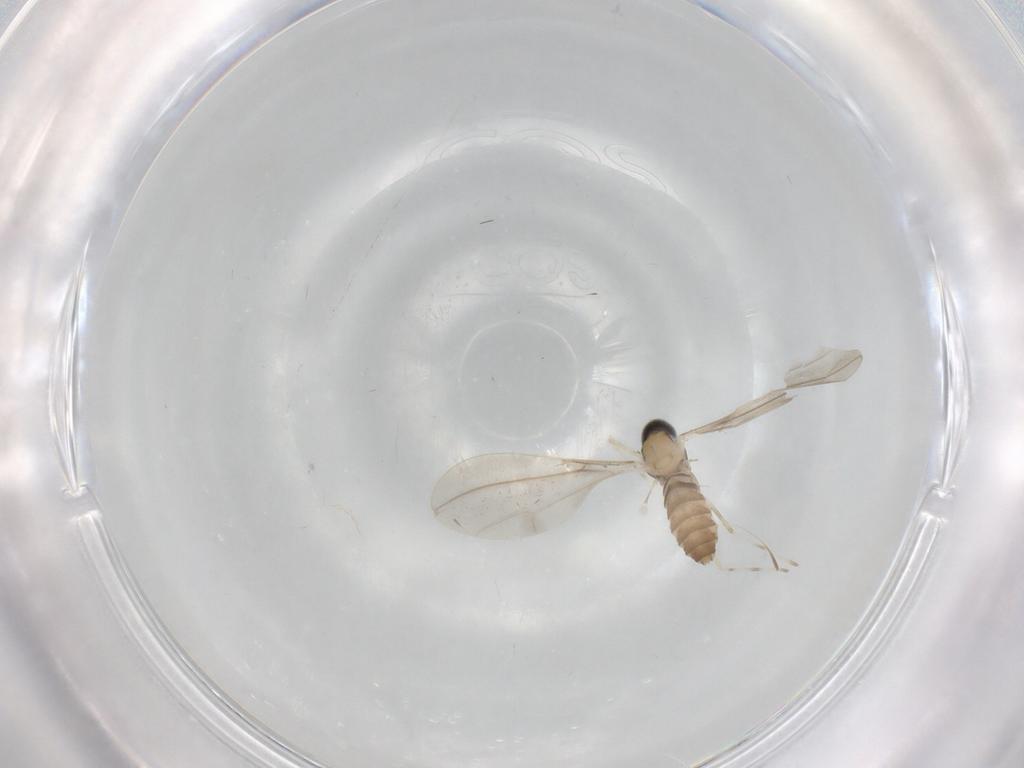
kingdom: Animalia
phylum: Arthropoda
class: Insecta
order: Diptera
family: Cecidomyiidae
